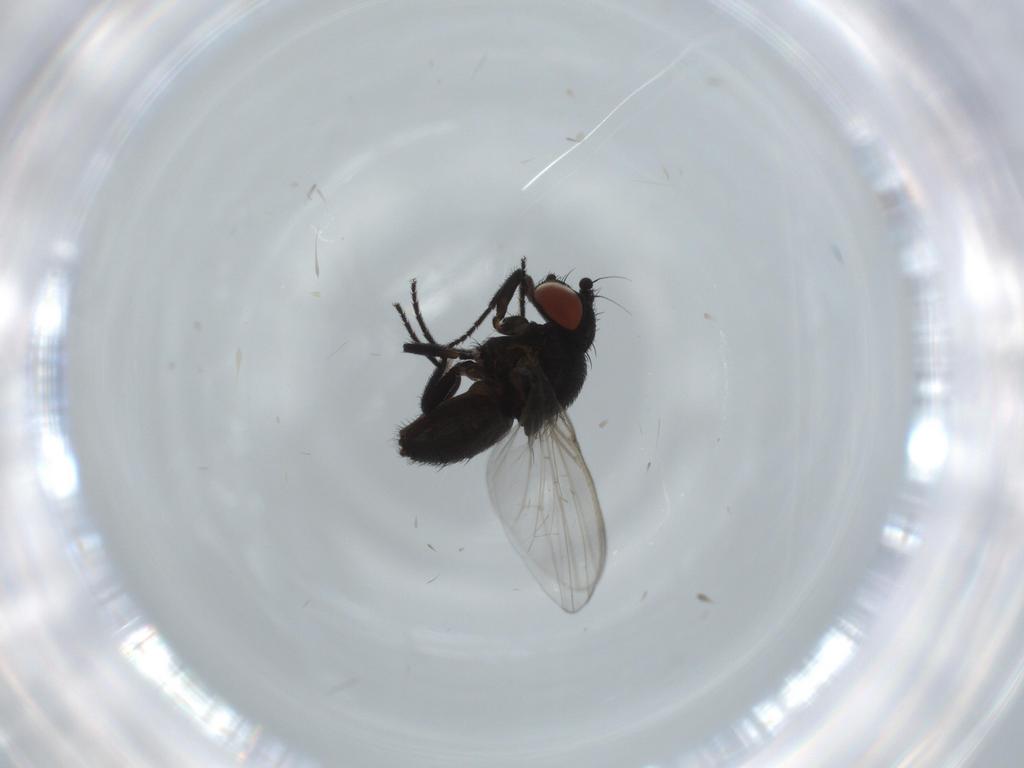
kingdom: Animalia
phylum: Arthropoda
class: Insecta
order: Diptera
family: Milichiidae
